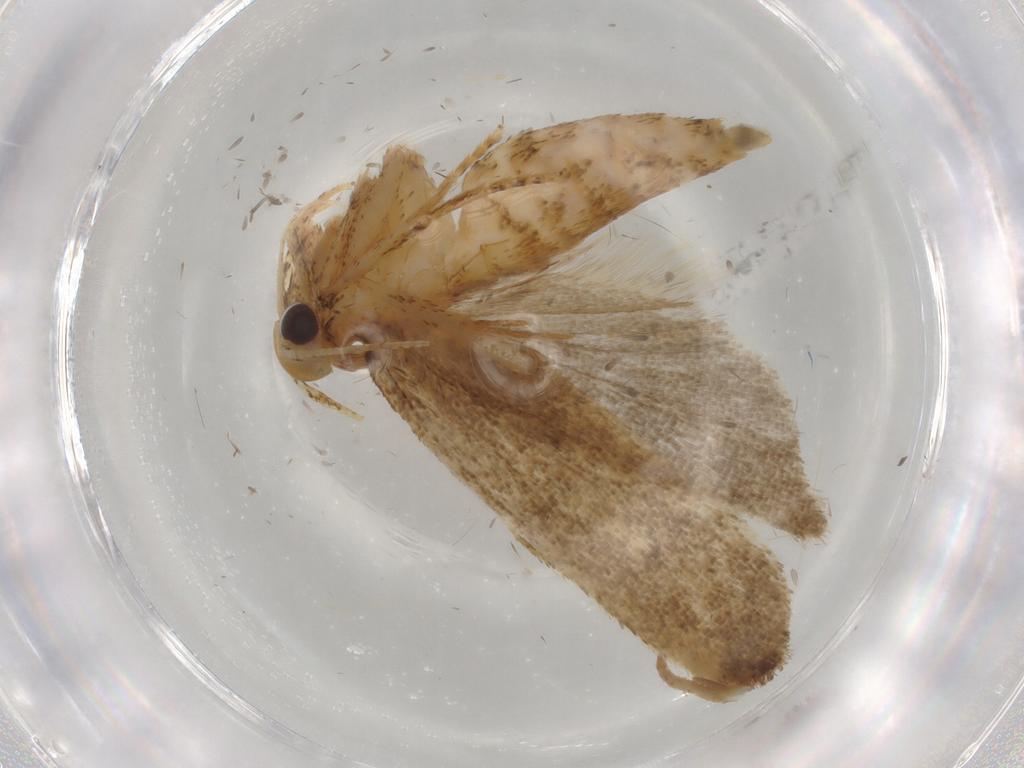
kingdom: Animalia
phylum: Arthropoda
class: Insecta
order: Lepidoptera
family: Autostichidae
